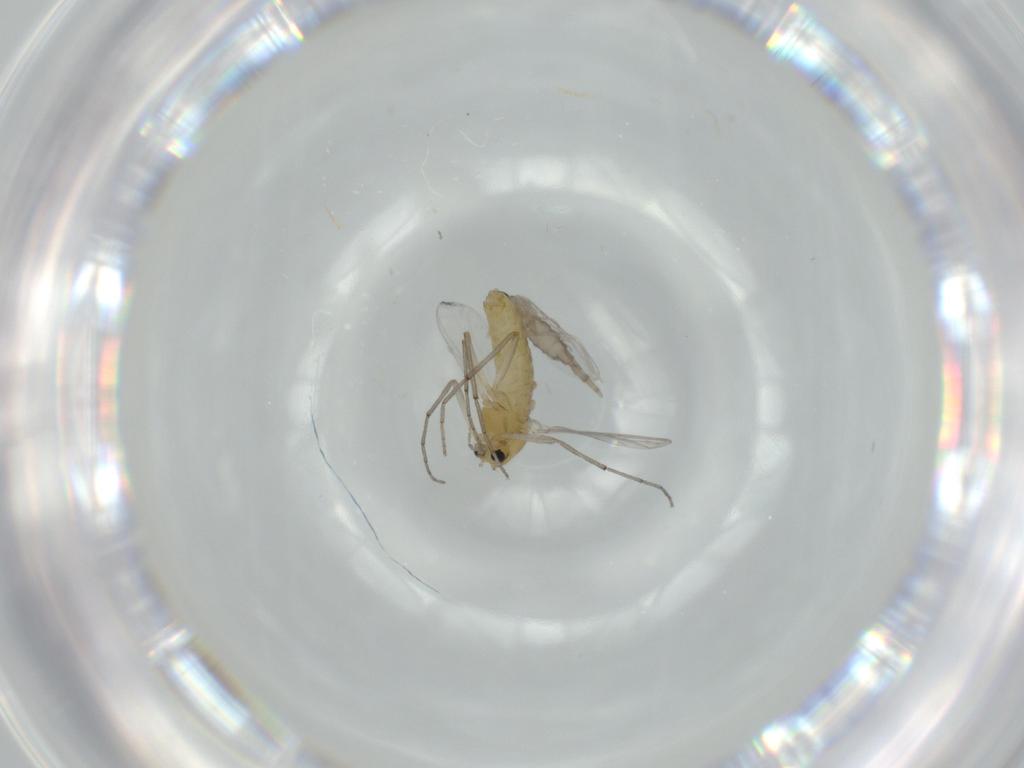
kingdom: Animalia
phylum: Arthropoda
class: Insecta
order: Diptera
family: Chironomidae
